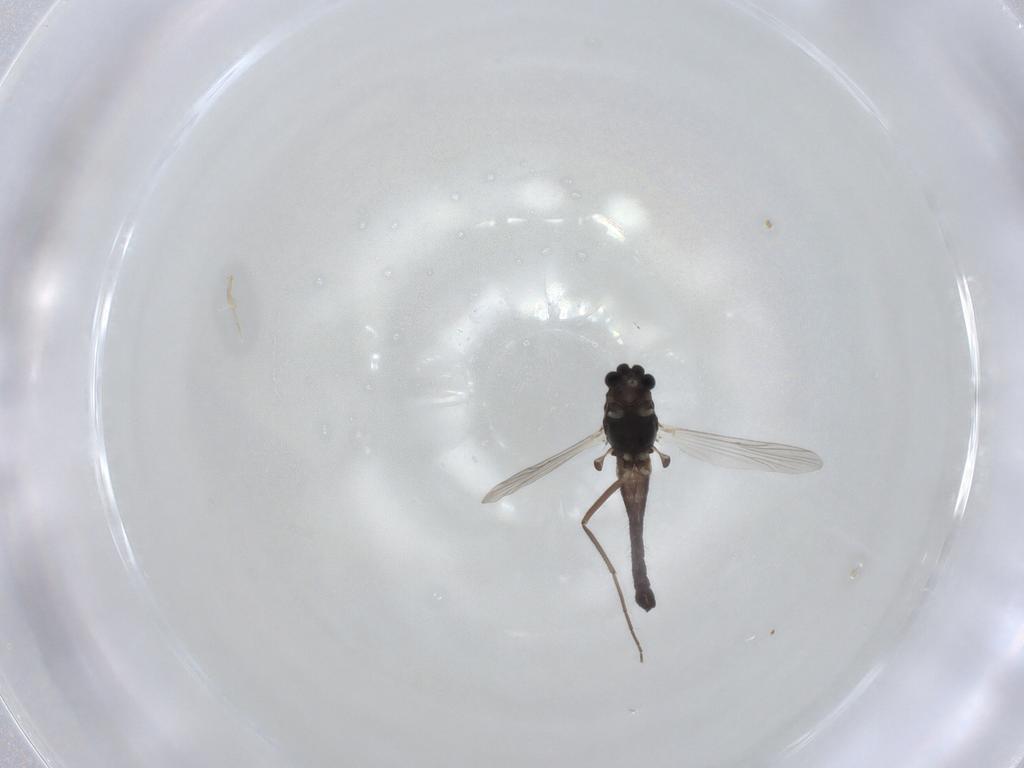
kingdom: Animalia
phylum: Arthropoda
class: Insecta
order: Diptera
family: Chironomidae
